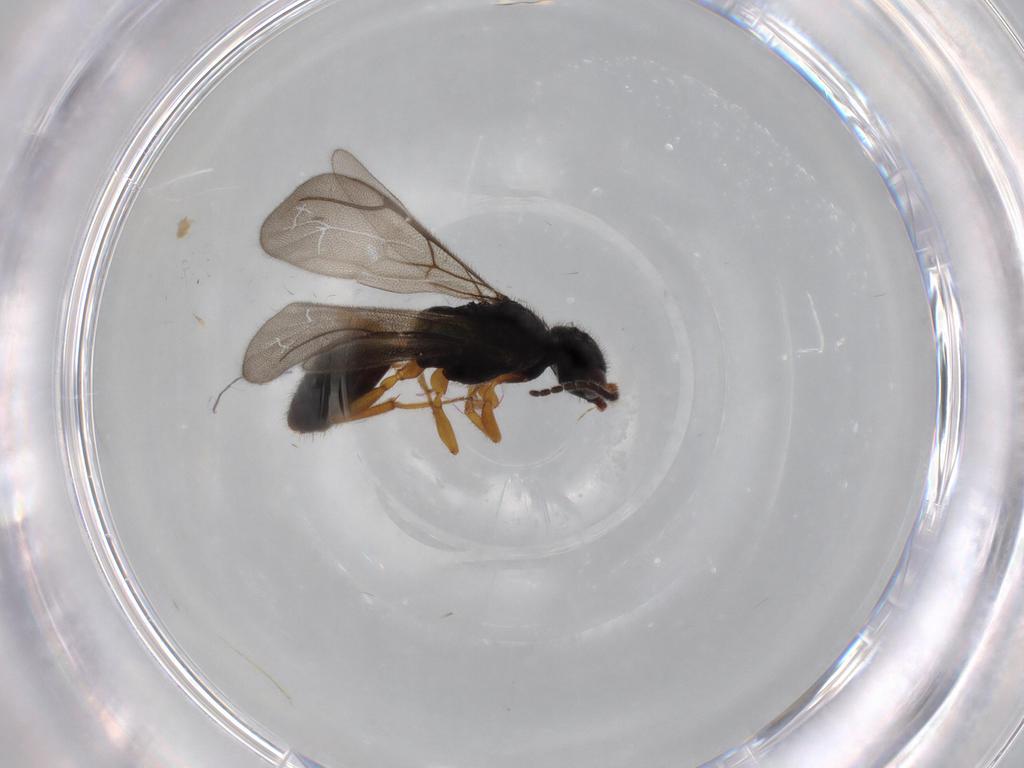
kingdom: Animalia
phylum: Arthropoda
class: Insecta
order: Hymenoptera
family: Bethylidae
